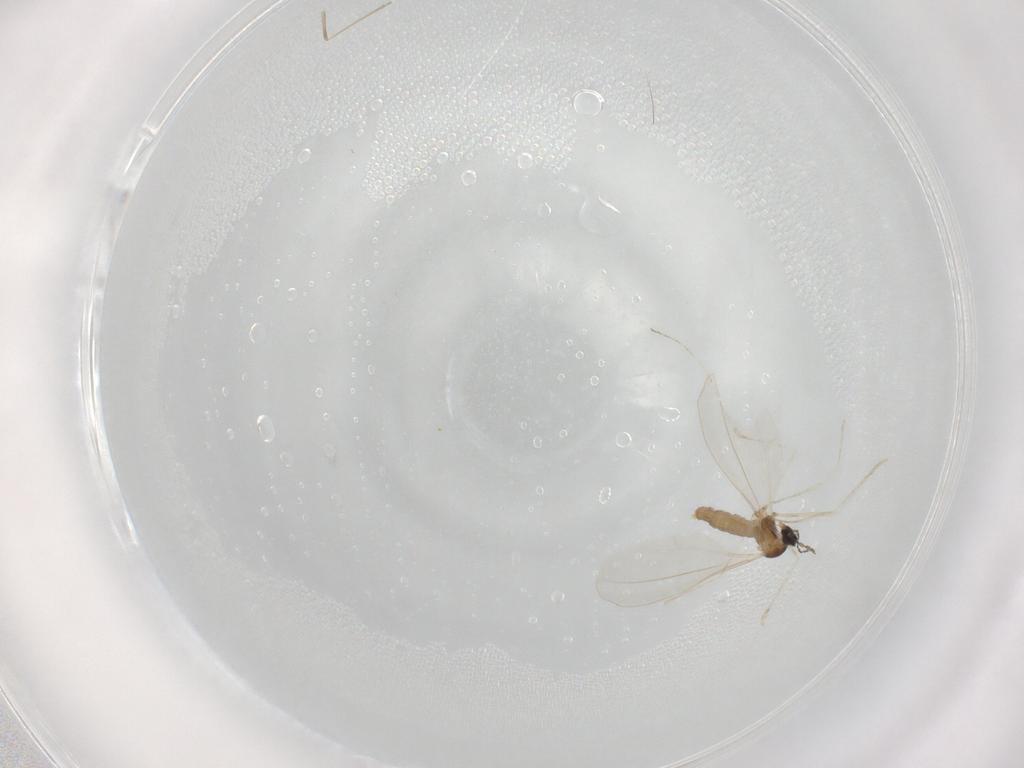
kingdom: Animalia
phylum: Arthropoda
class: Insecta
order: Diptera
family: Cecidomyiidae
